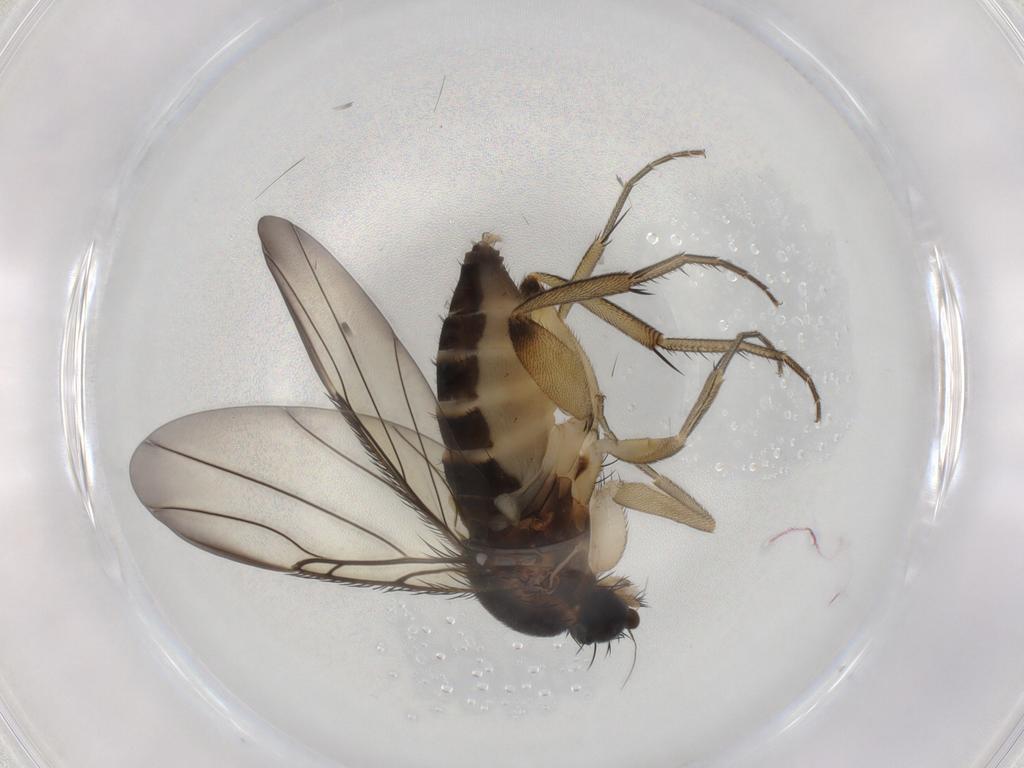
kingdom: Animalia
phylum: Arthropoda
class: Insecta
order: Diptera
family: Phoridae
